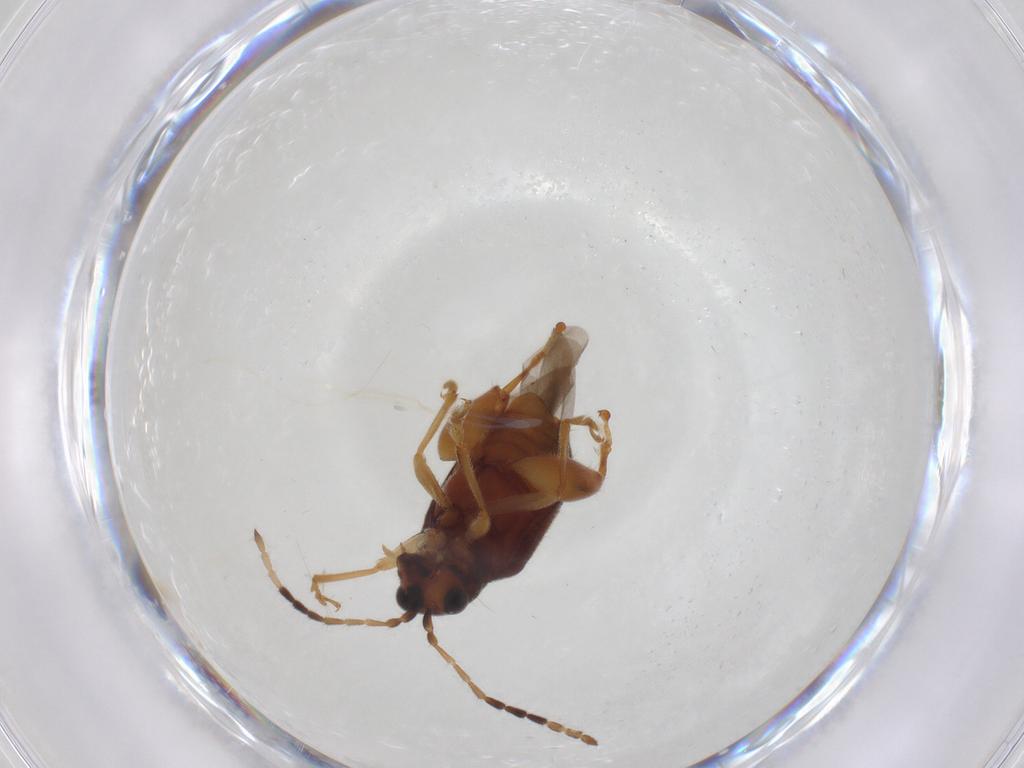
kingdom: Animalia
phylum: Arthropoda
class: Insecta
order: Coleoptera
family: Chrysomelidae
